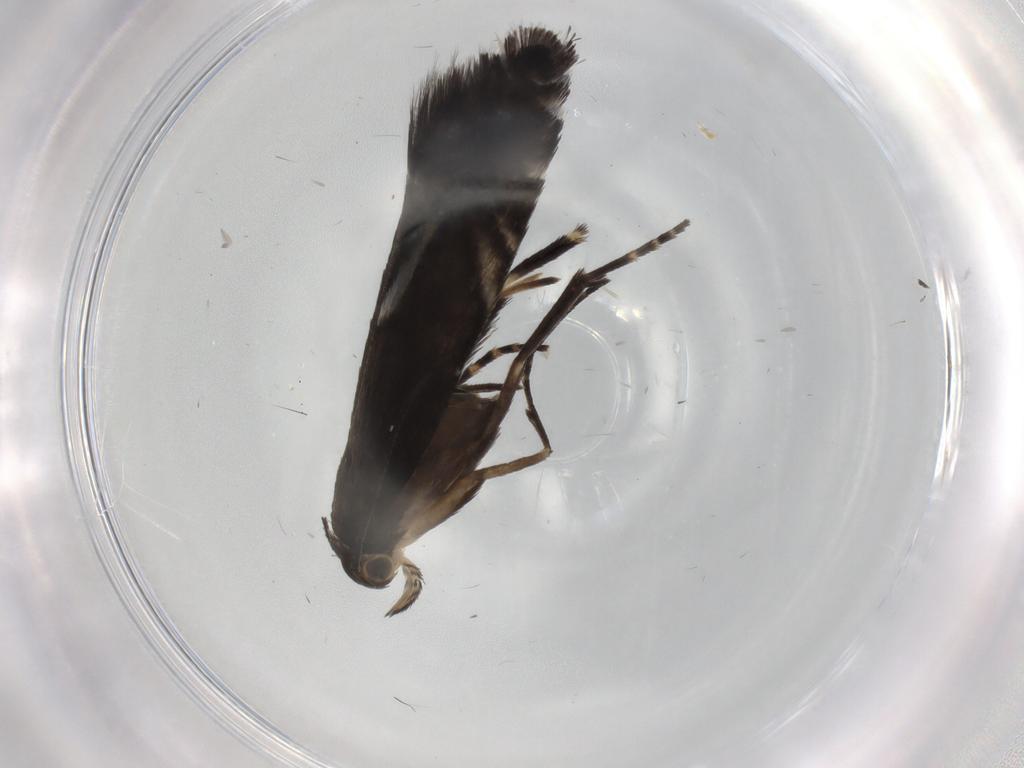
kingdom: Animalia
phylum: Arthropoda
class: Insecta
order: Lepidoptera
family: Glyphipterigidae
